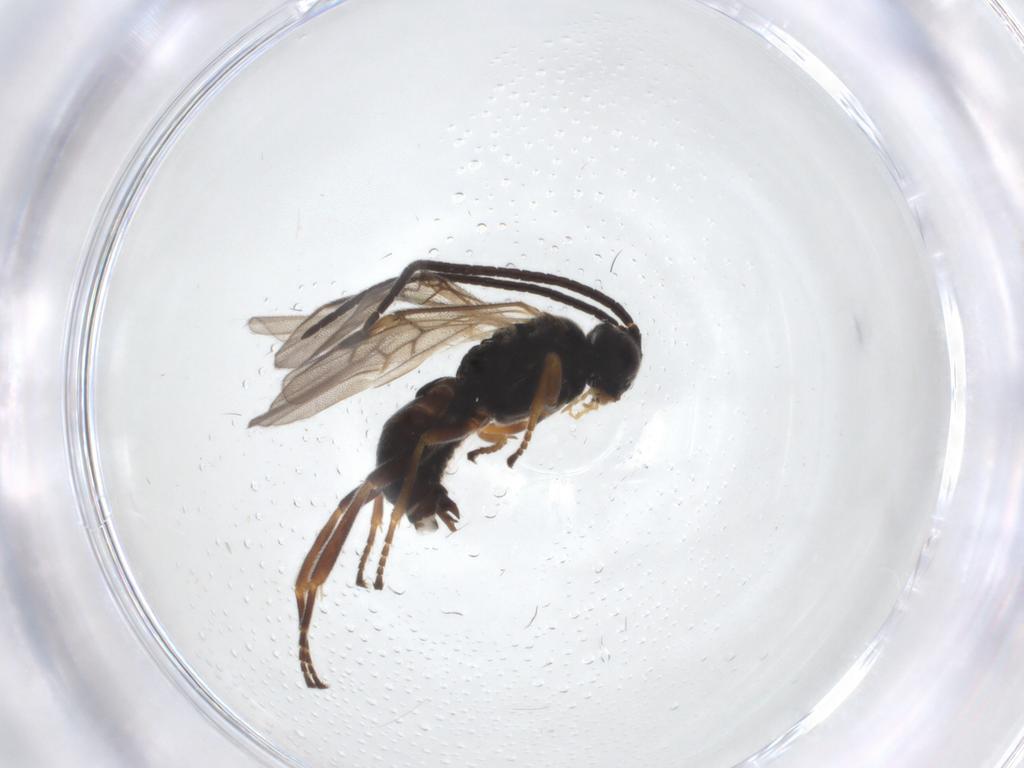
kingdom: Animalia
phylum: Arthropoda
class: Insecta
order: Hymenoptera
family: Braconidae
